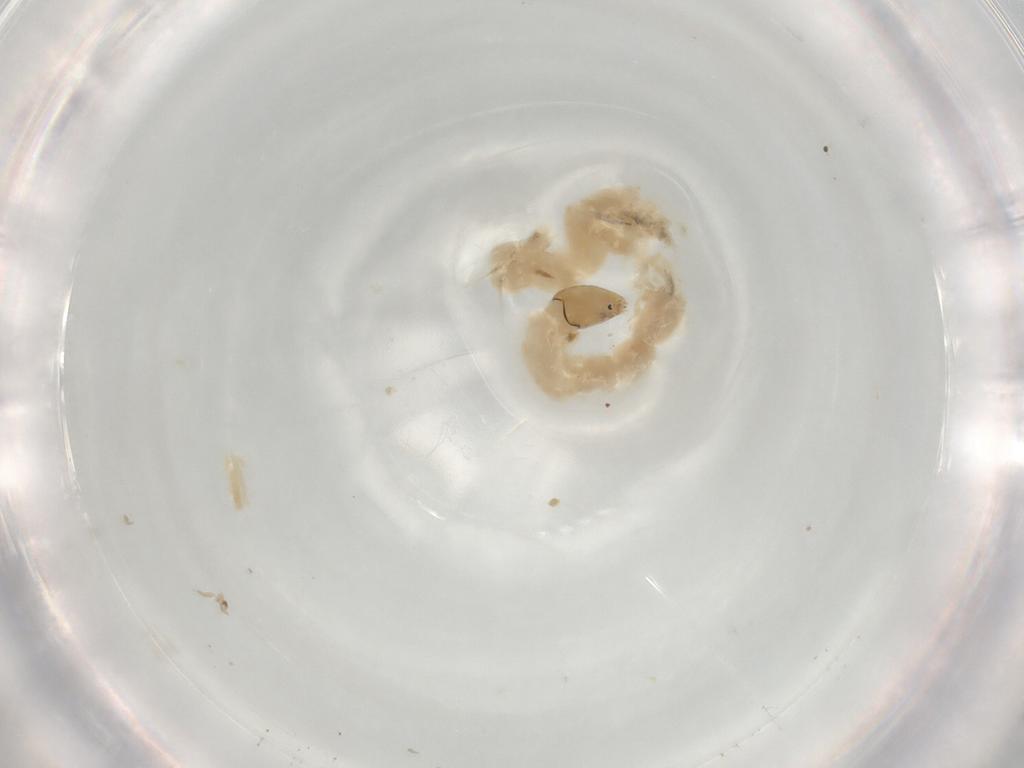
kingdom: Animalia
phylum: Arthropoda
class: Insecta
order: Diptera
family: Chironomidae
